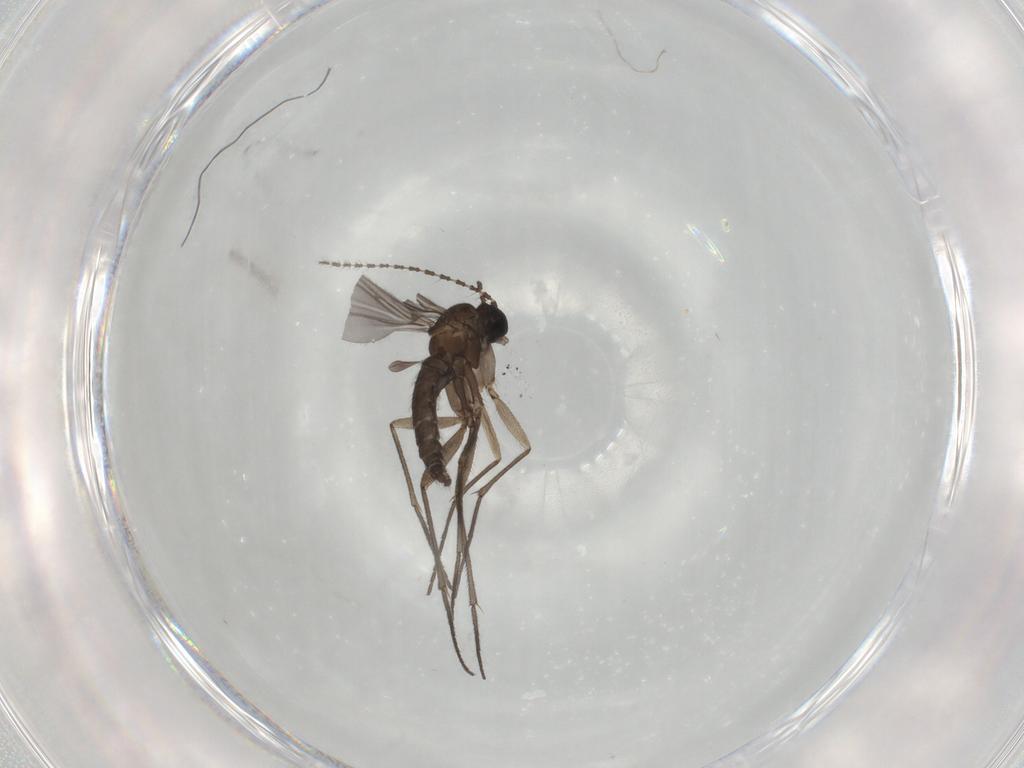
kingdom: Animalia
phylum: Arthropoda
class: Insecta
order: Diptera
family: Sciaridae
